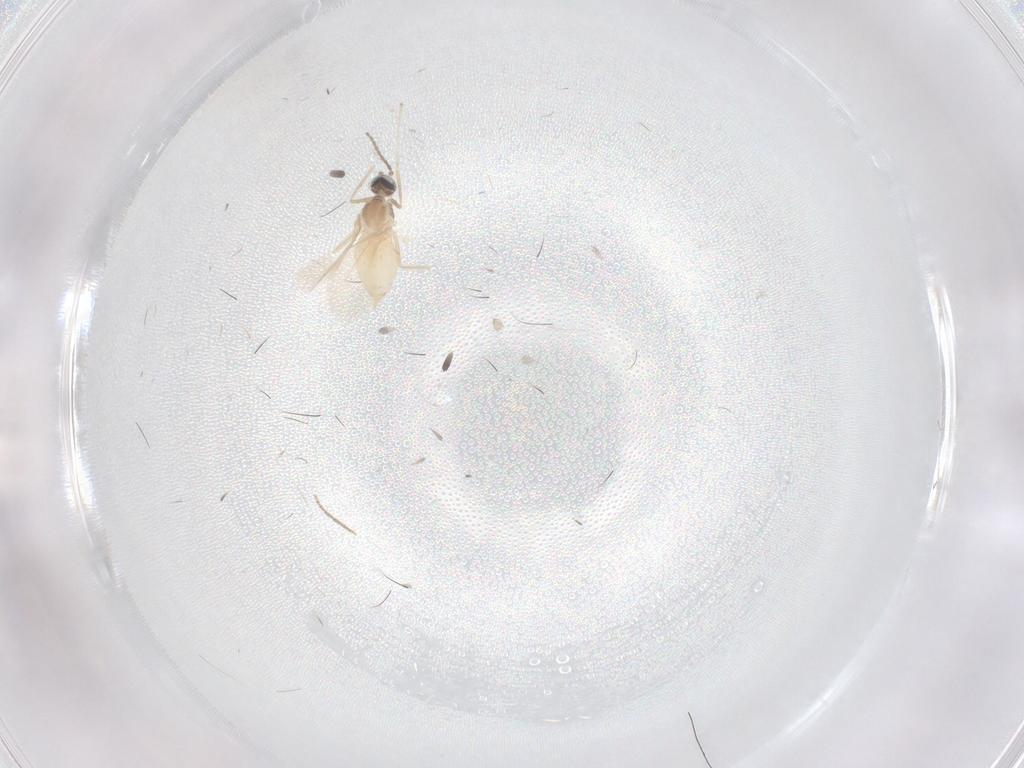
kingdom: Animalia
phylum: Arthropoda
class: Insecta
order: Diptera
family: Cecidomyiidae
